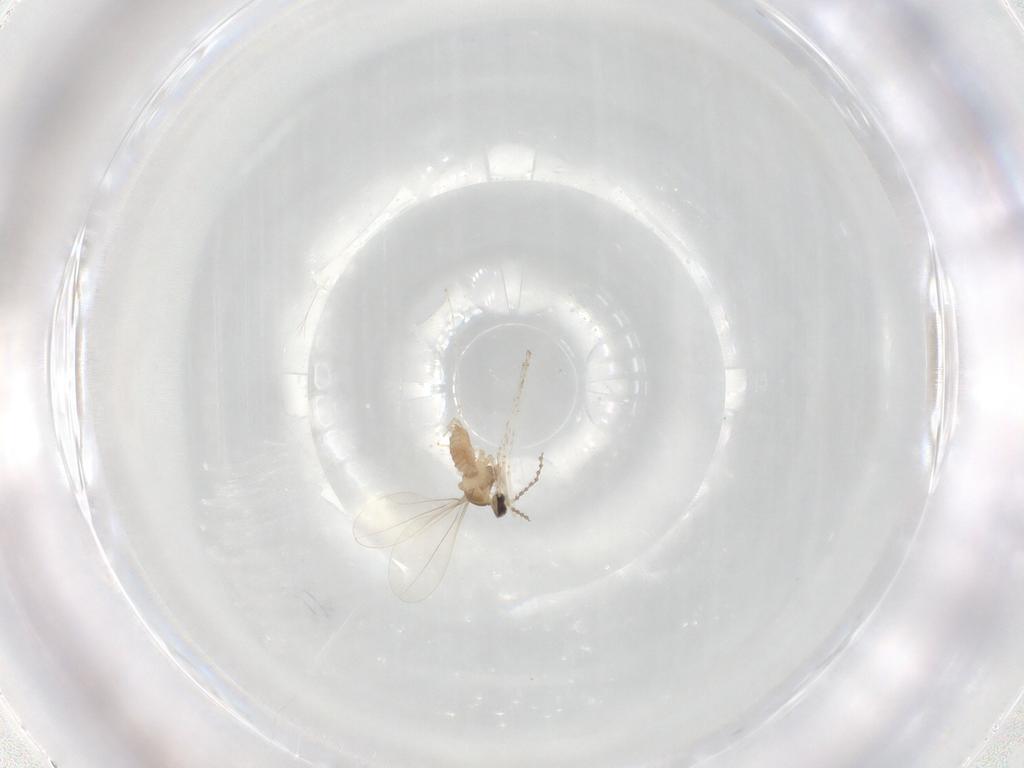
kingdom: Animalia
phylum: Arthropoda
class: Insecta
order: Diptera
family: Cecidomyiidae
